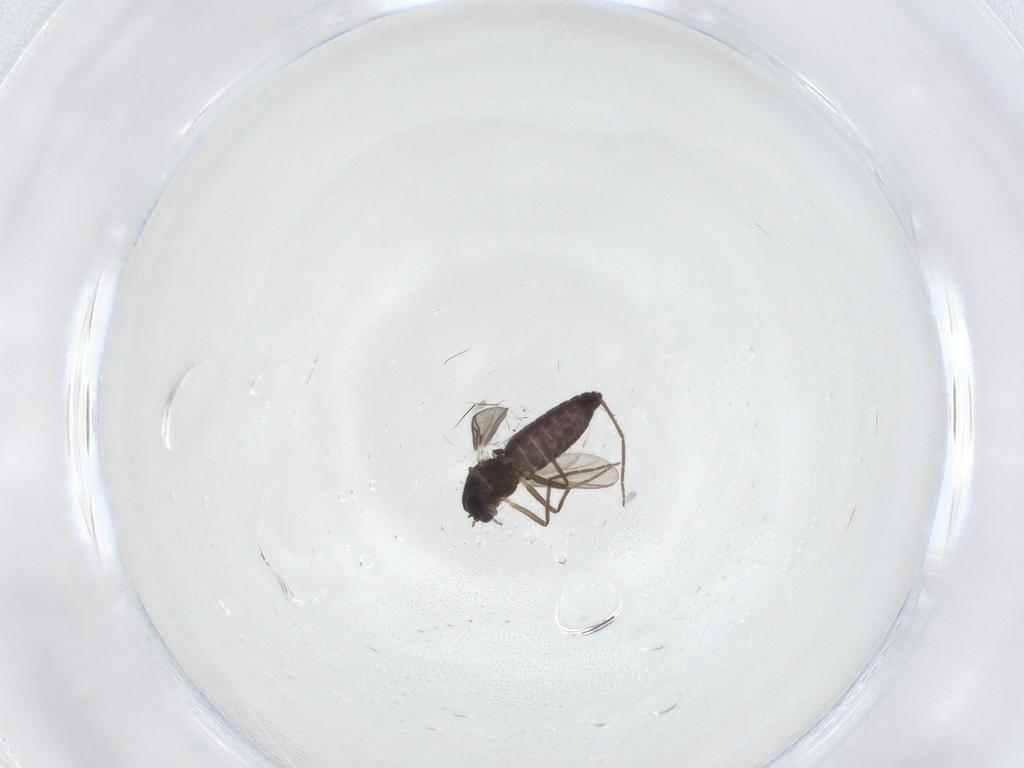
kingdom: Animalia
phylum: Arthropoda
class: Insecta
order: Diptera
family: Chironomidae
